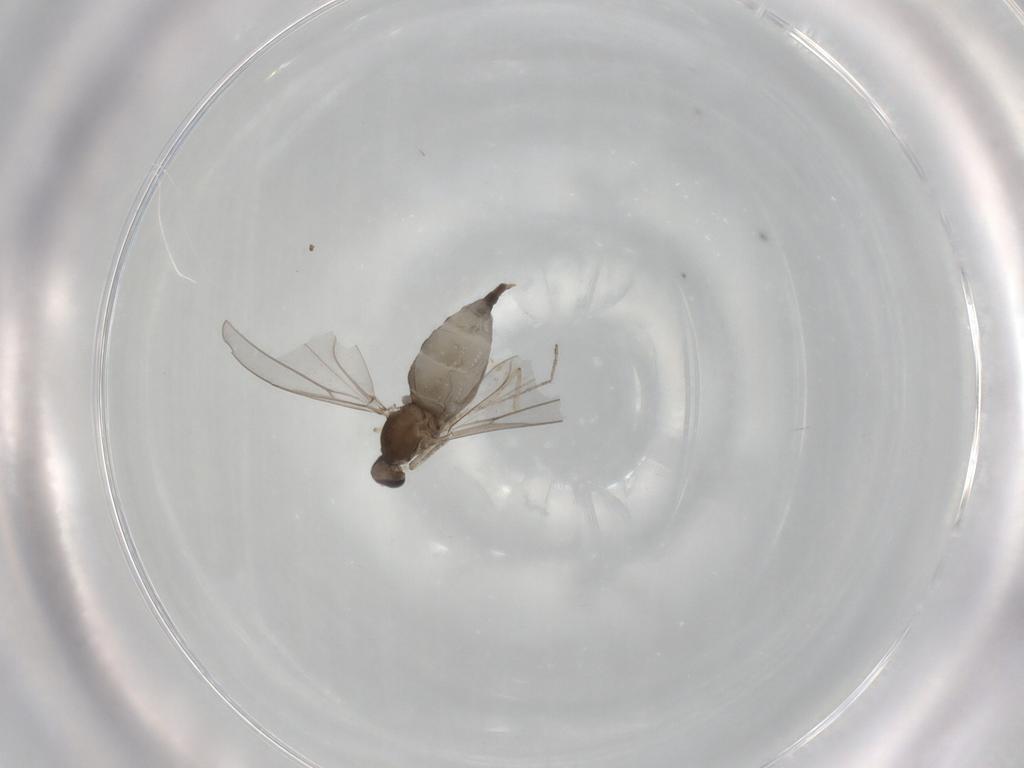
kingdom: Animalia
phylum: Arthropoda
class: Insecta
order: Diptera
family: Cecidomyiidae
